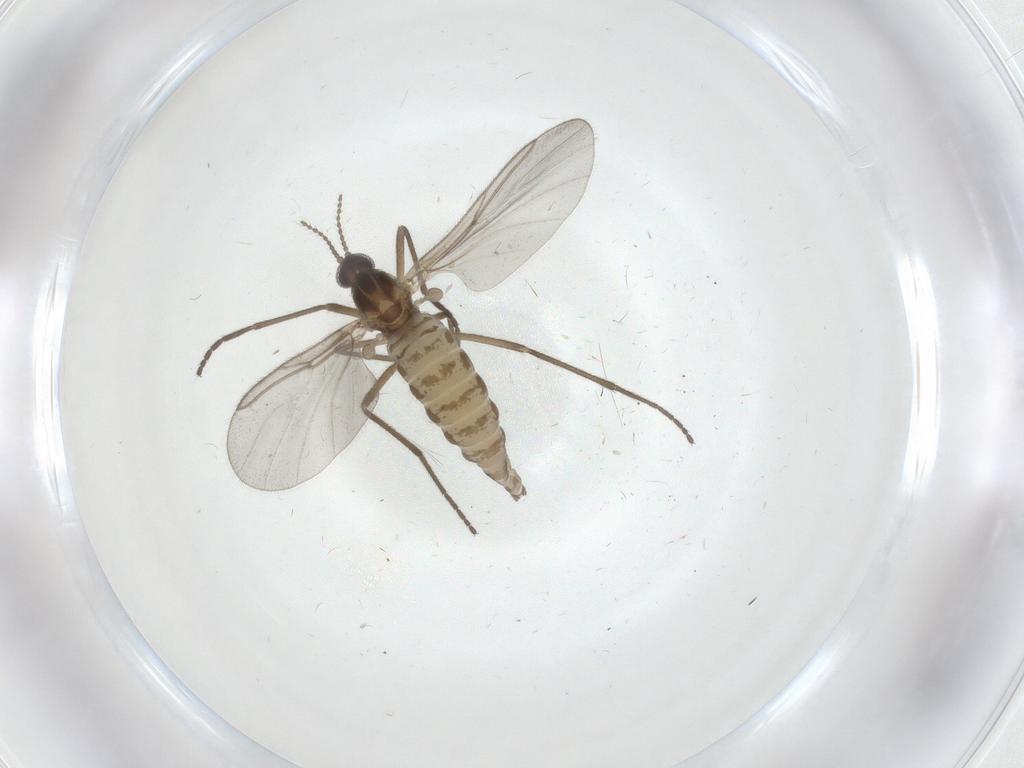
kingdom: Animalia
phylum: Arthropoda
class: Insecta
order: Diptera
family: Cecidomyiidae
